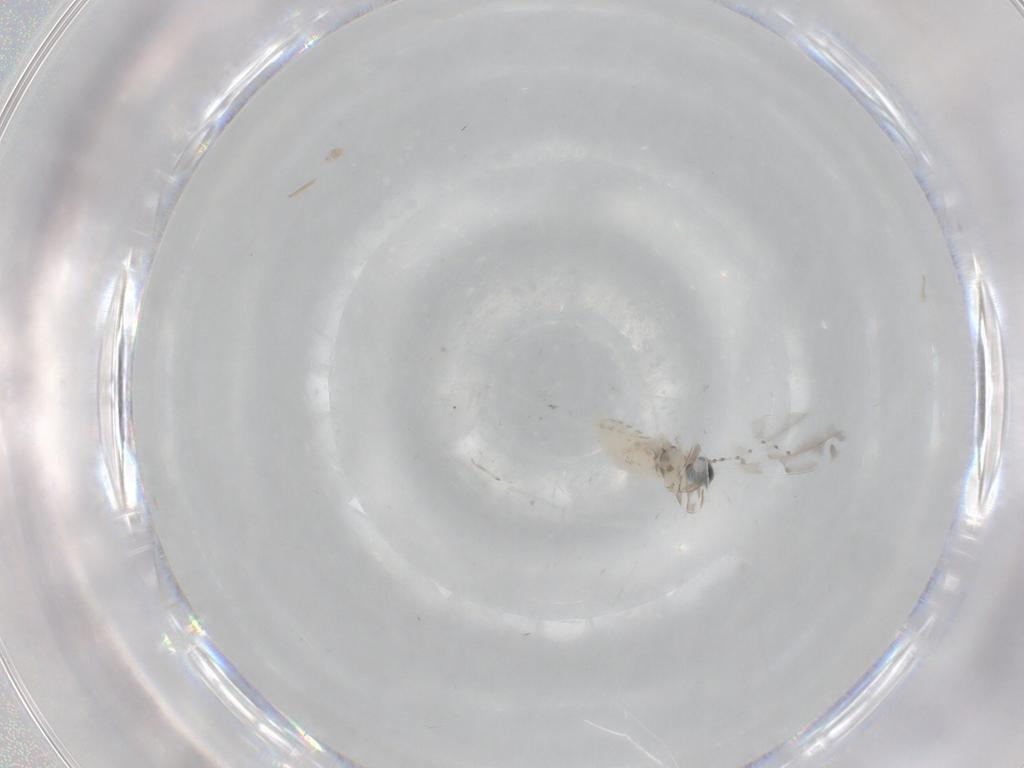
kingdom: Animalia
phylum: Arthropoda
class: Insecta
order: Diptera
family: Cecidomyiidae
